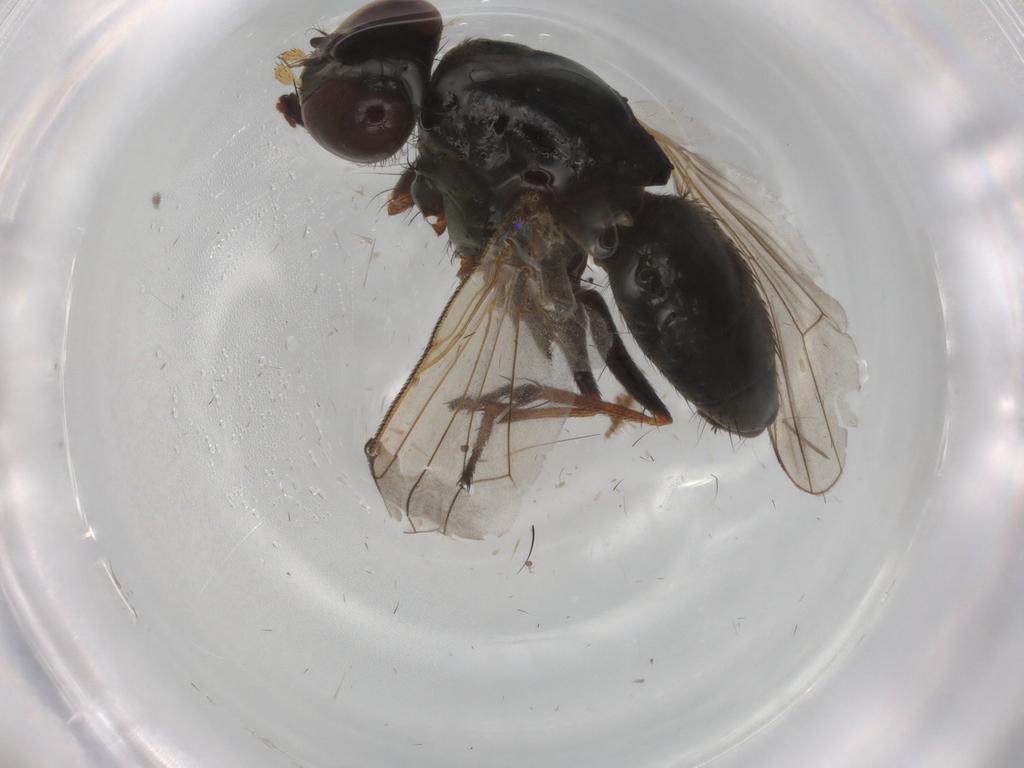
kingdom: Animalia
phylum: Arthropoda
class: Insecta
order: Diptera
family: Muscidae
